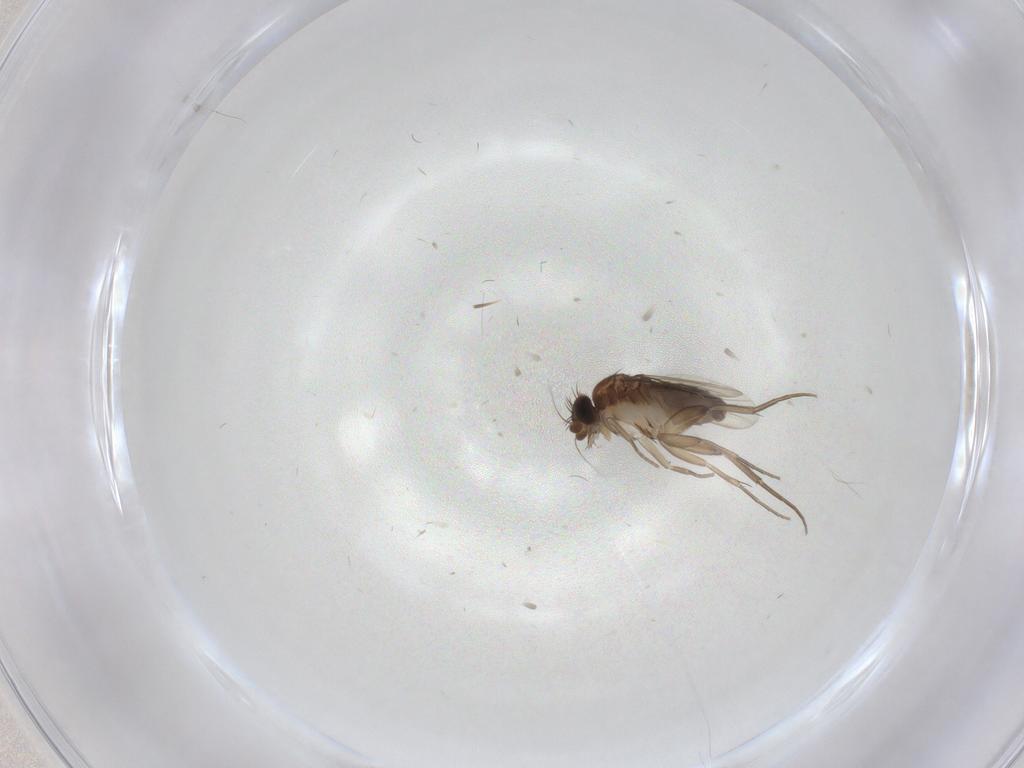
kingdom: Animalia
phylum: Arthropoda
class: Insecta
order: Diptera
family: Phoridae
